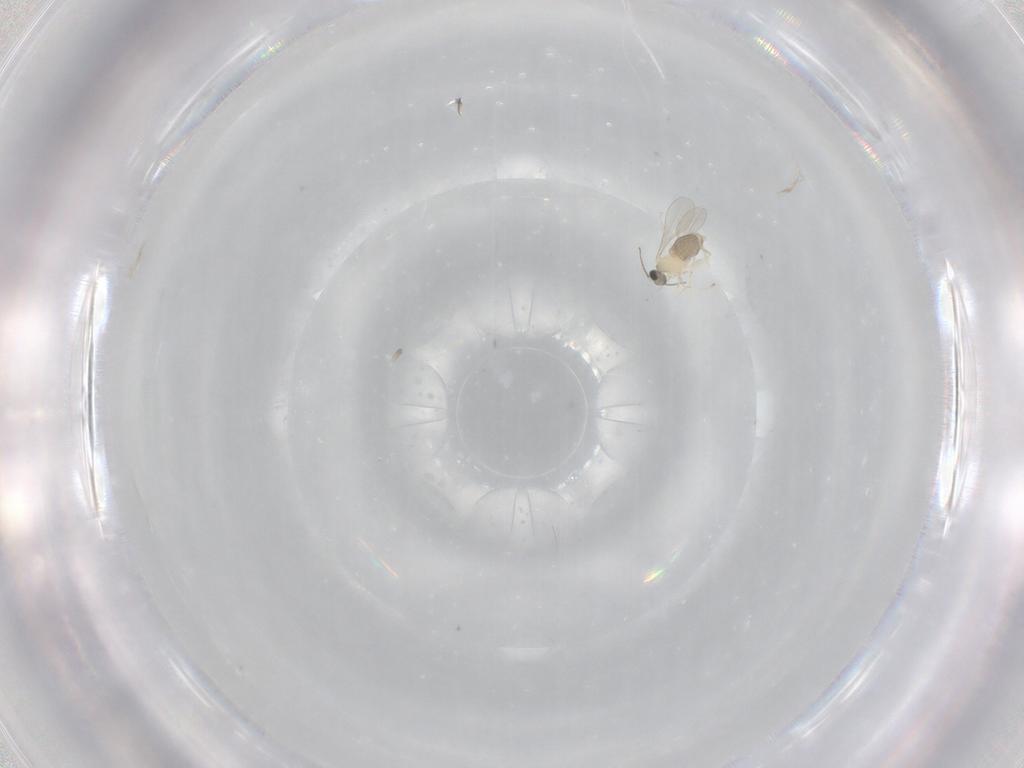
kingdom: Animalia
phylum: Arthropoda
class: Insecta
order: Diptera
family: Cecidomyiidae
